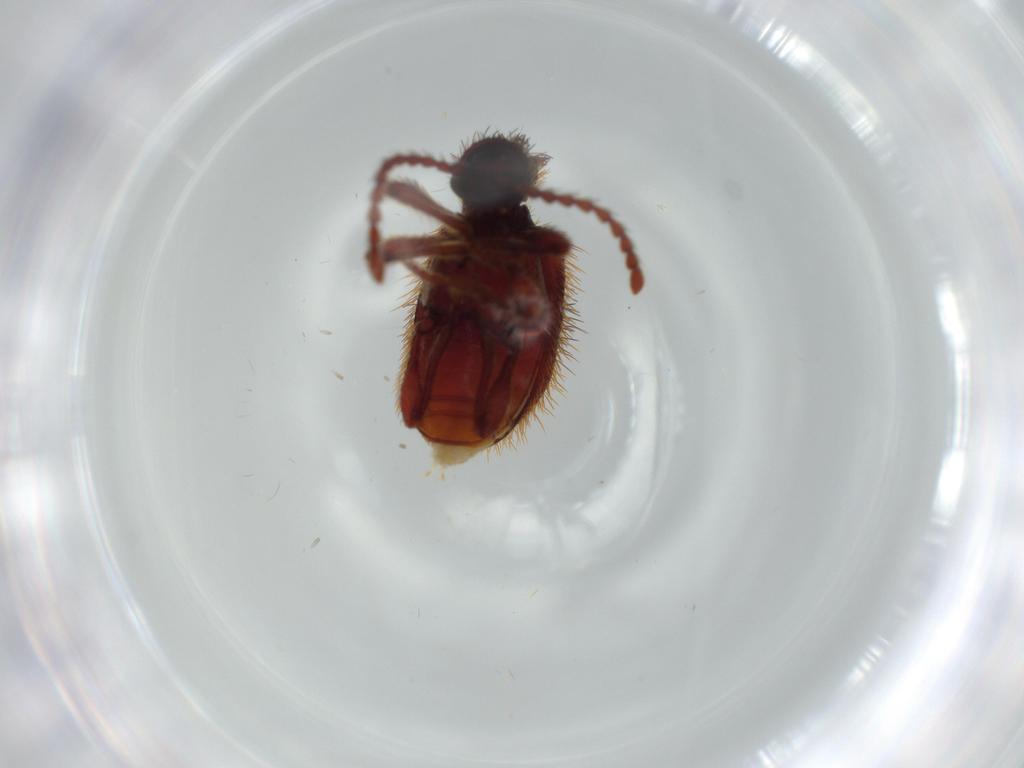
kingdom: Animalia
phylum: Arthropoda
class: Insecta
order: Coleoptera
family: Ptinidae
